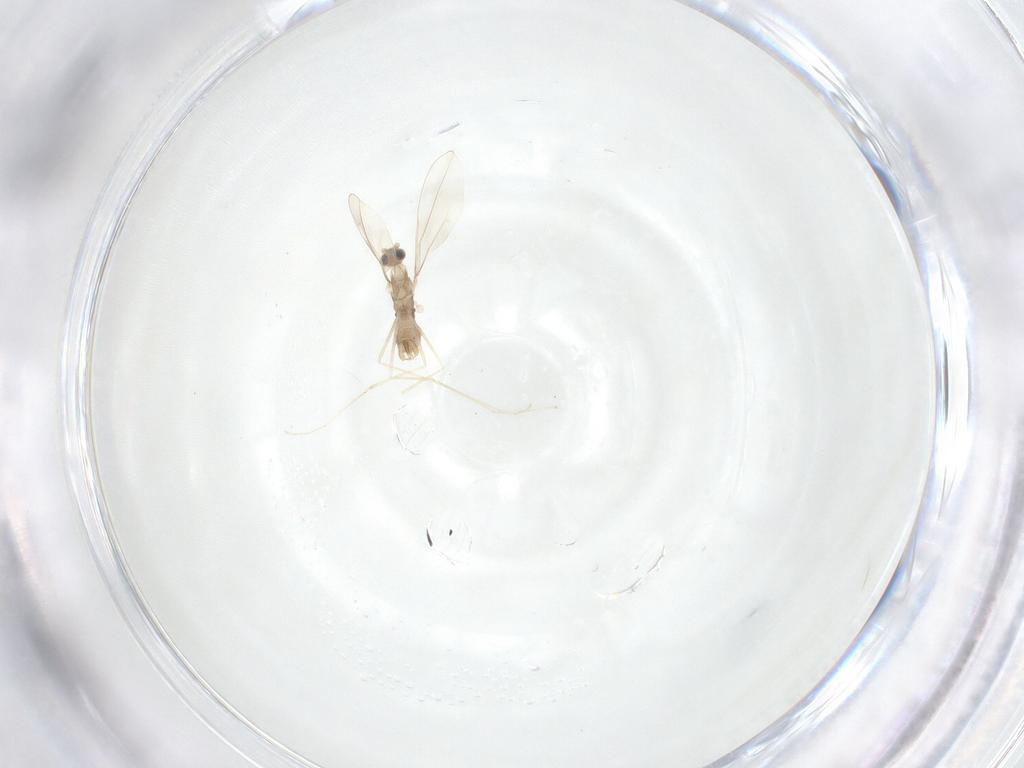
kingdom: Animalia
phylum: Arthropoda
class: Insecta
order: Diptera
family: Cecidomyiidae
